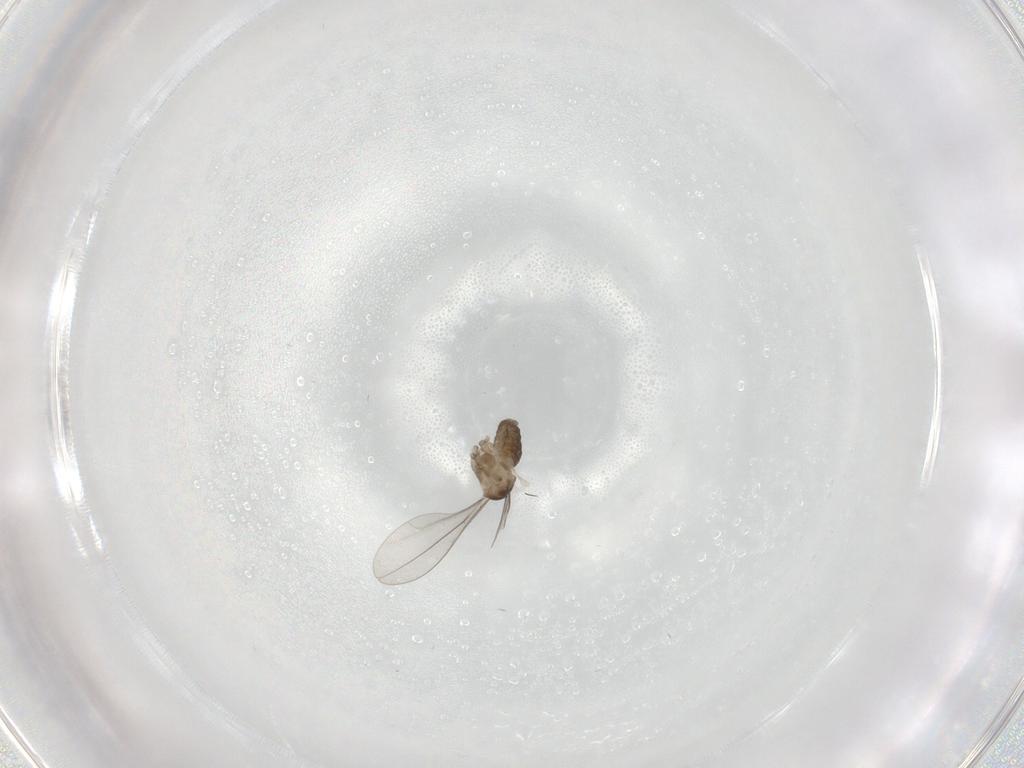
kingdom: Animalia
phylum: Arthropoda
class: Insecta
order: Diptera
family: Cecidomyiidae
